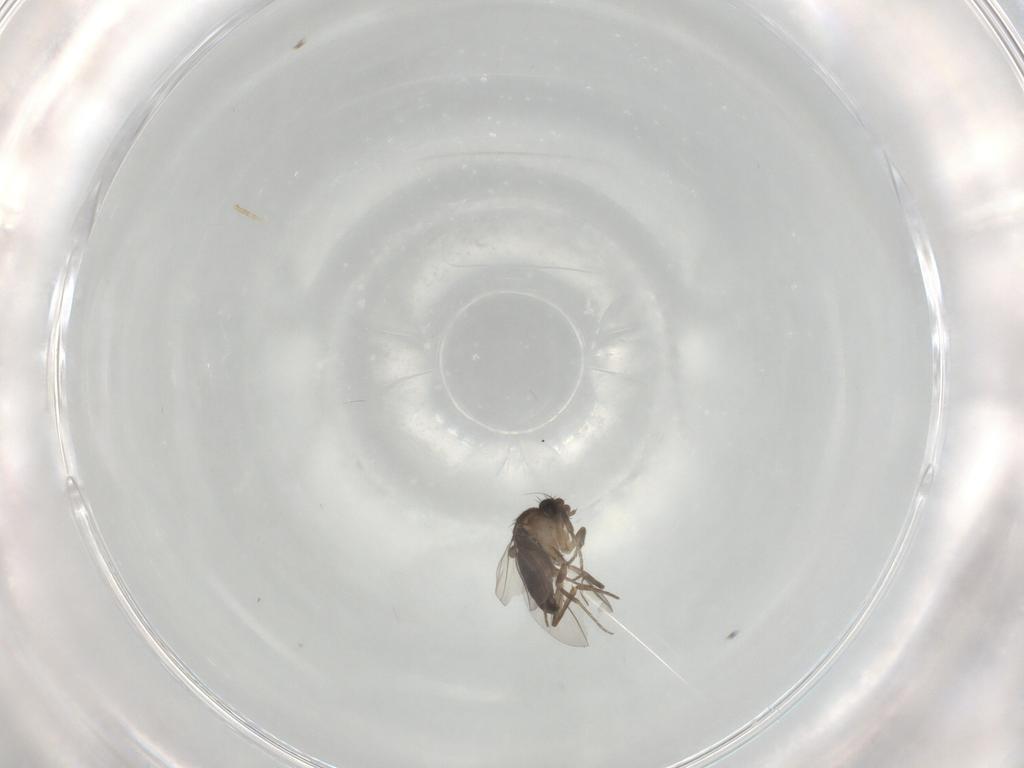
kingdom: Animalia
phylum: Arthropoda
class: Insecta
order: Diptera
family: Phoridae
